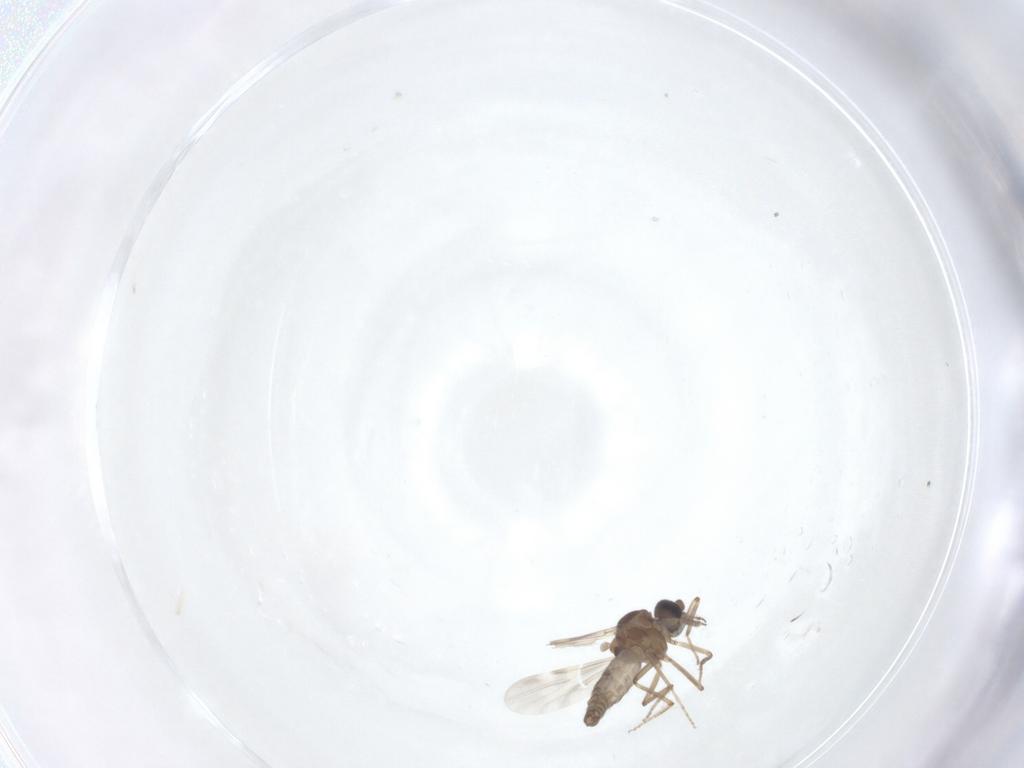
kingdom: Animalia
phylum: Arthropoda
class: Insecta
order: Diptera
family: Ceratopogonidae
